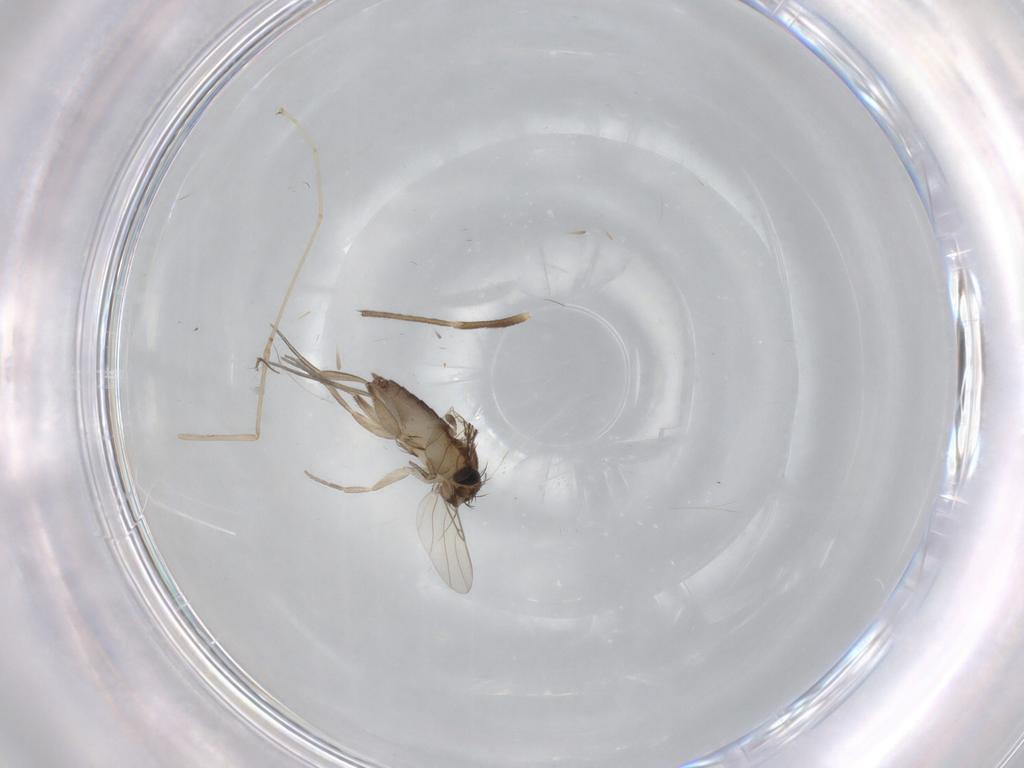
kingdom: Animalia
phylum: Arthropoda
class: Insecta
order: Diptera
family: Chironomidae
